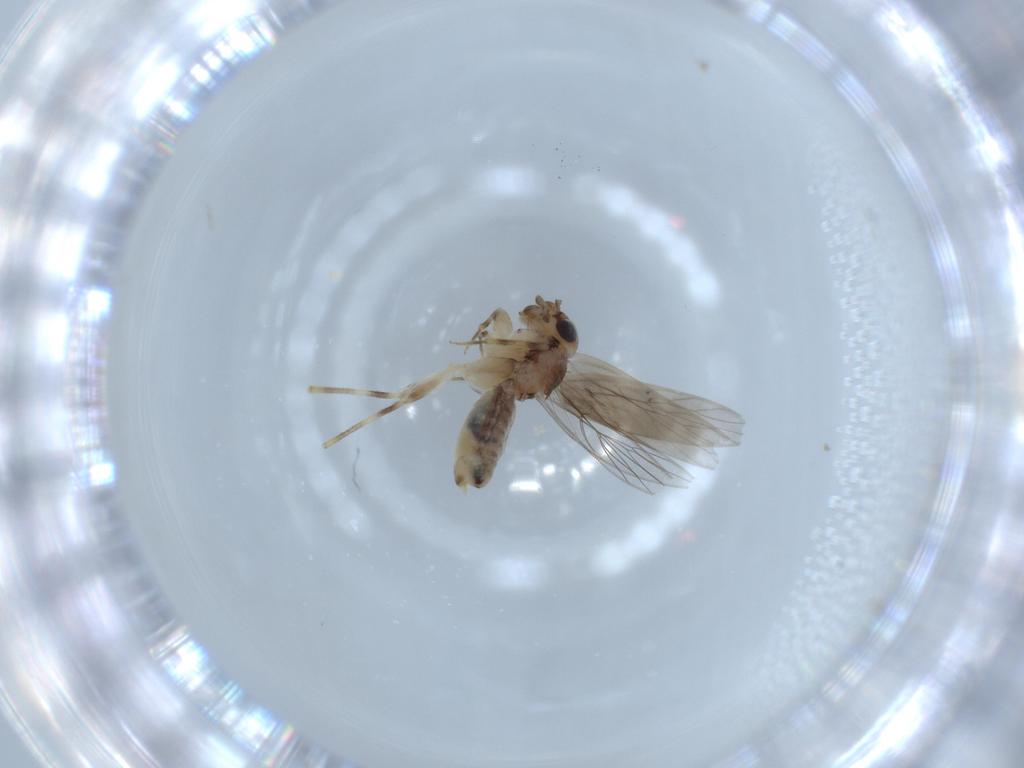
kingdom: Animalia
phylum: Arthropoda
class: Insecta
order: Psocodea
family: Lepidopsocidae
